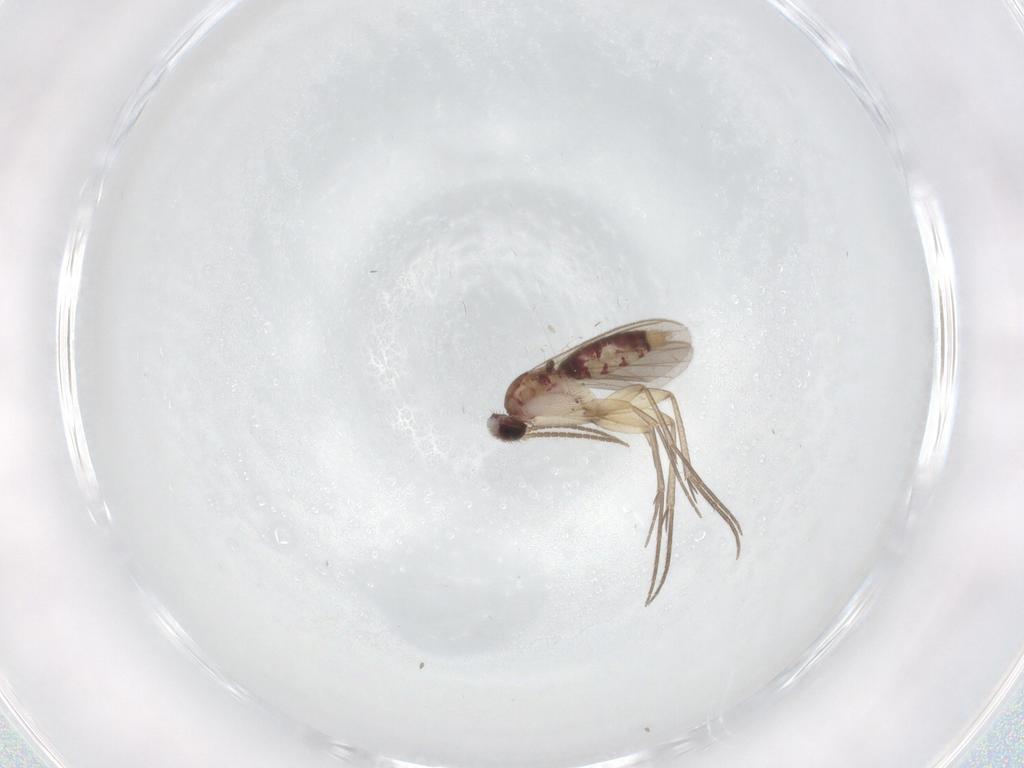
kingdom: Animalia
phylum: Arthropoda
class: Insecta
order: Diptera
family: Mycetophilidae
